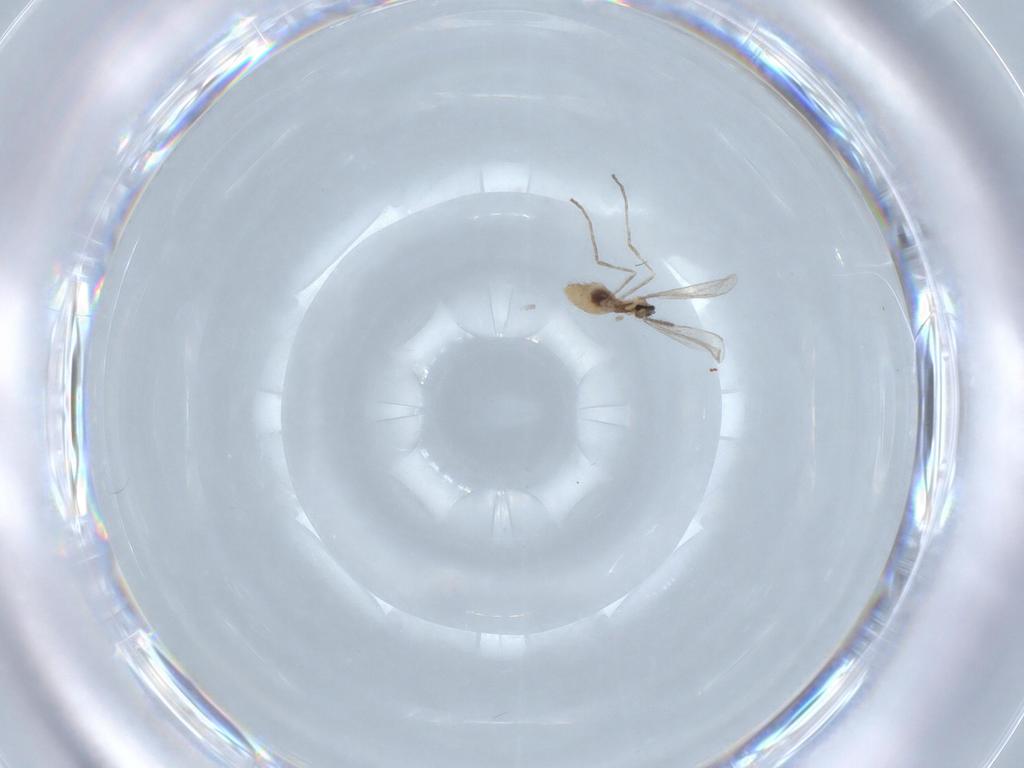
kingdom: Animalia
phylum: Arthropoda
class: Insecta
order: Diptera
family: Cecidomyiidae
